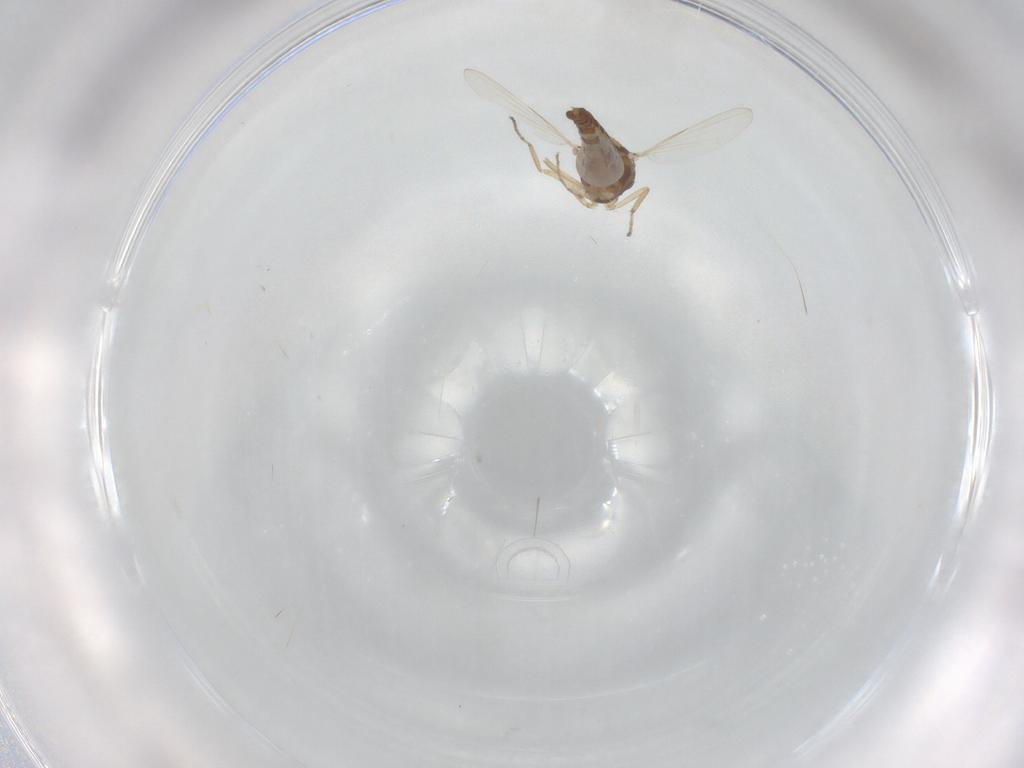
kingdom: Animalia
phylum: Arthropoda
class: Insecta
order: Diptera
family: Ceratopogonidae
